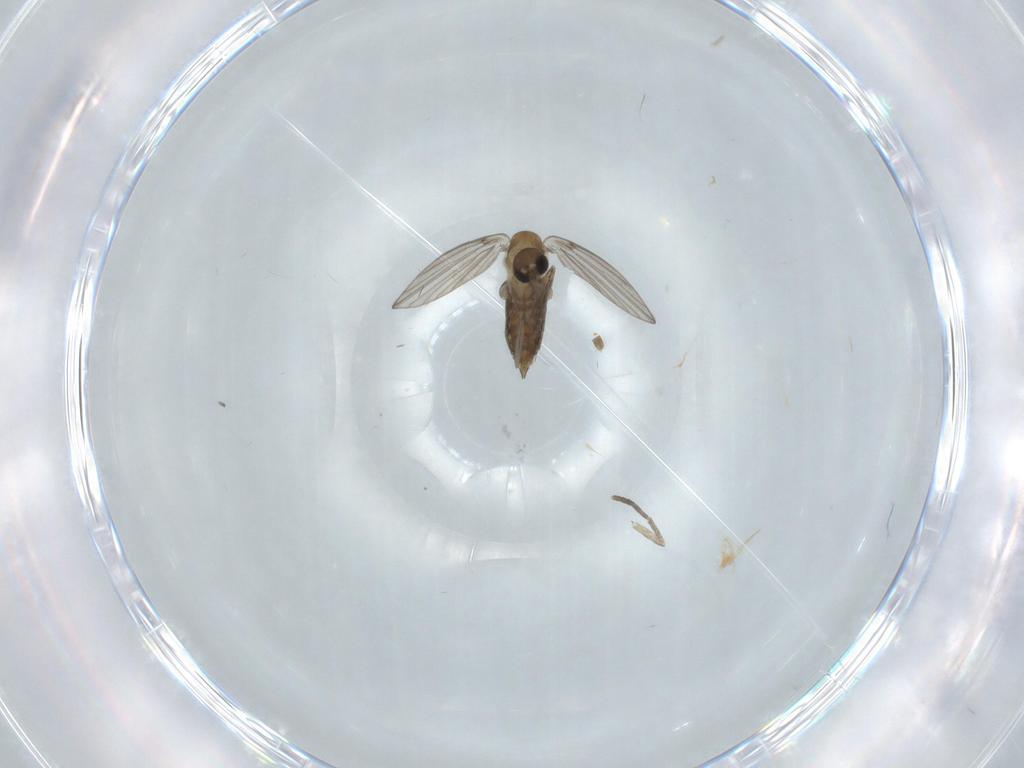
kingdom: Animalia
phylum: Arthropoda
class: Insecta
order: Diptera
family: Psychodidae
